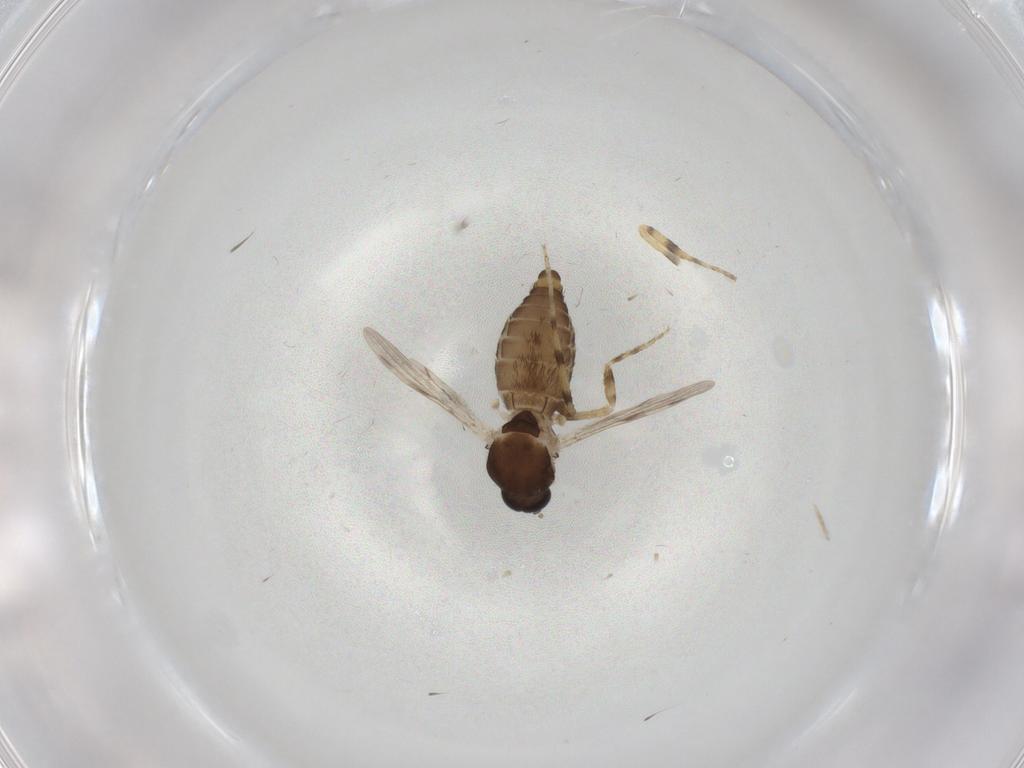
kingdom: Animalia
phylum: Arthropoda
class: Insecta
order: Diptera
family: Ceratopogonidae
